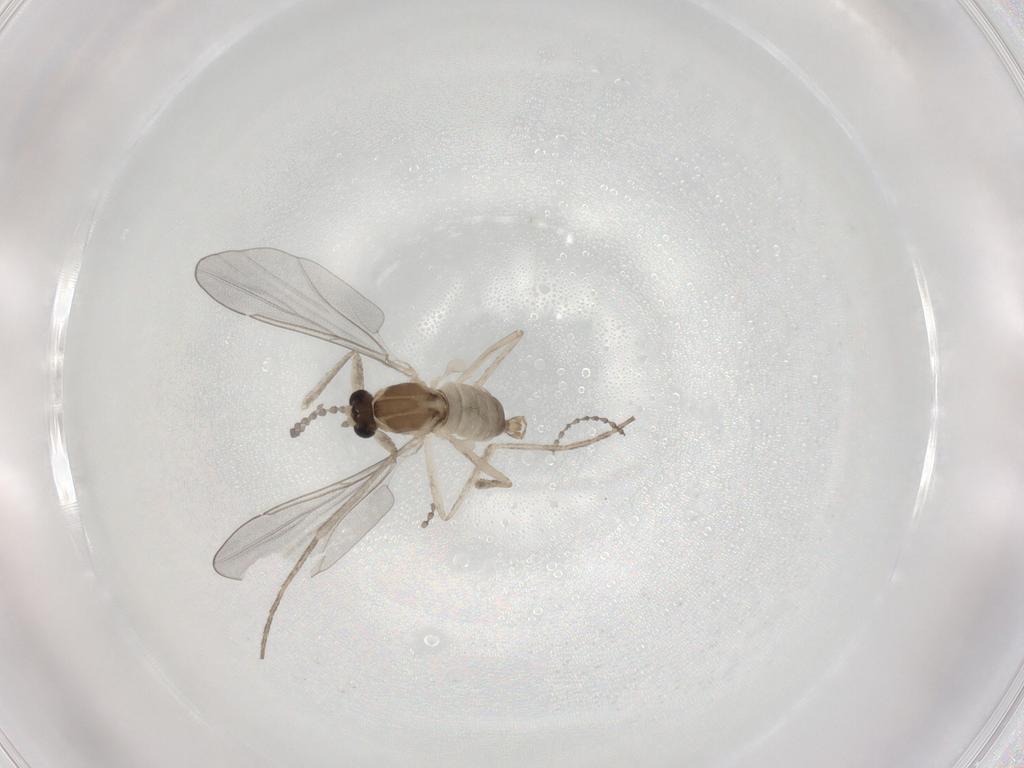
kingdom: Animalia
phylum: Arthropoda
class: Insecta
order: Diptera
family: Cecidomyiidae
